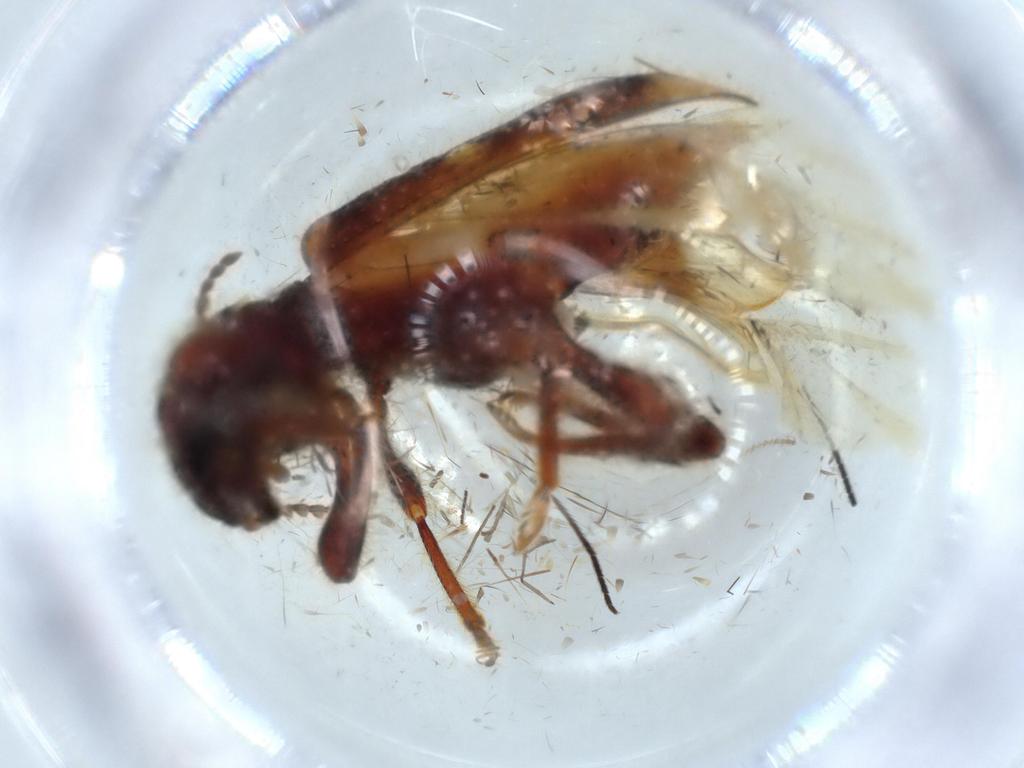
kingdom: Animalia
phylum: Arthropoda
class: Insecta
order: Coleoptera
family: Cleridae
